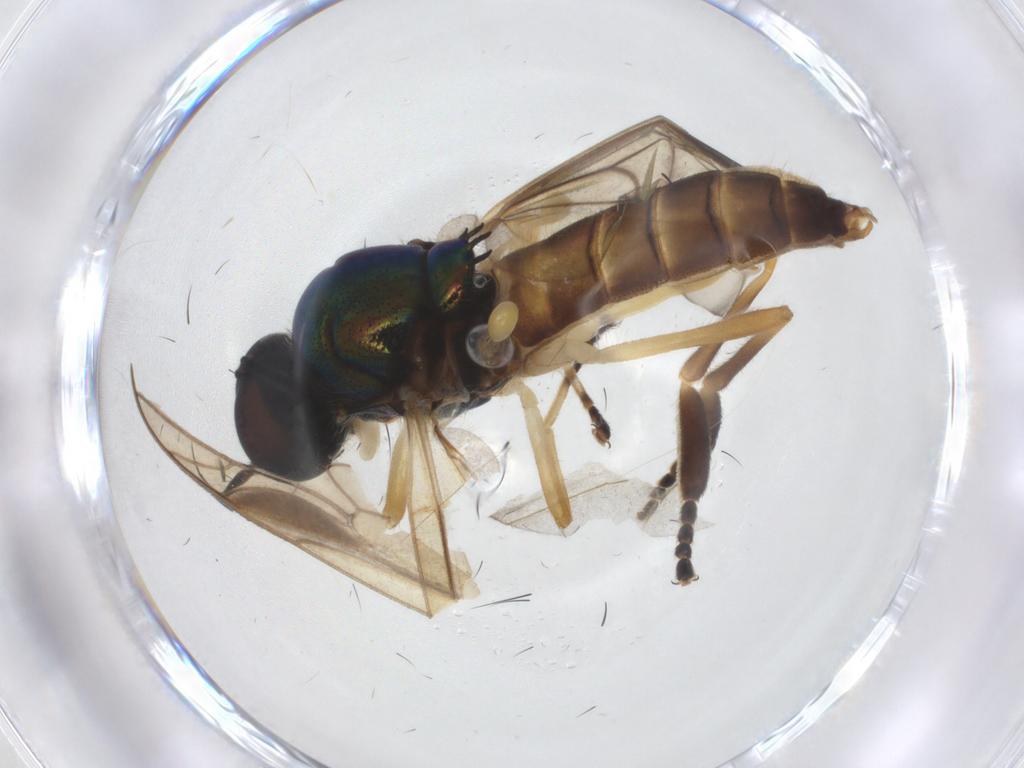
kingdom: Animalia
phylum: Arthropoda
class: Insecta
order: Diptera
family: Stratiomyidae
